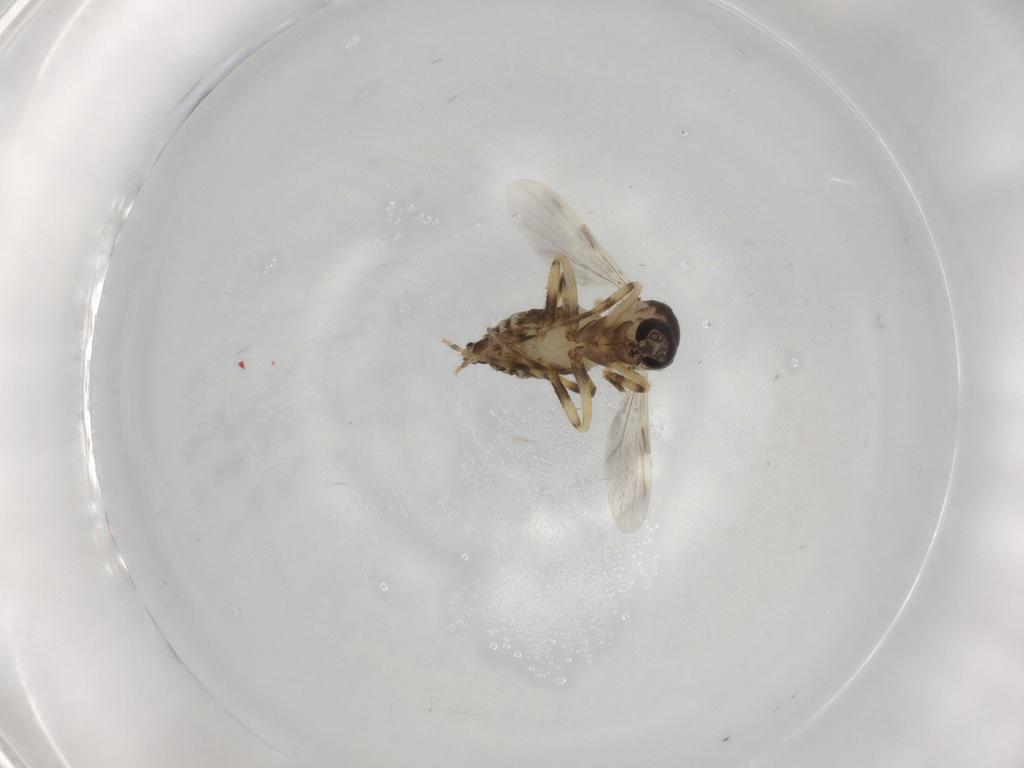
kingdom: Animalia
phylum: Arthropoda
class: Insecta
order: Diptera
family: Ceratopogonidae
